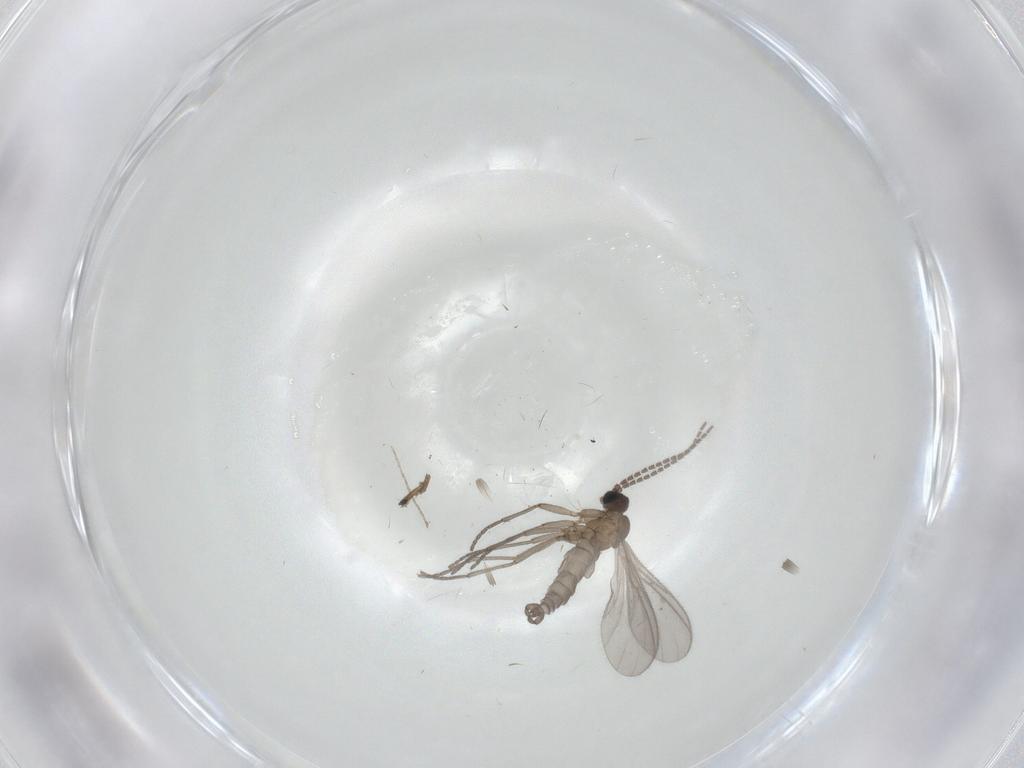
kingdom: Animalia
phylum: Arthropoda
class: Insecta
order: Diptera
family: Sciaridae
